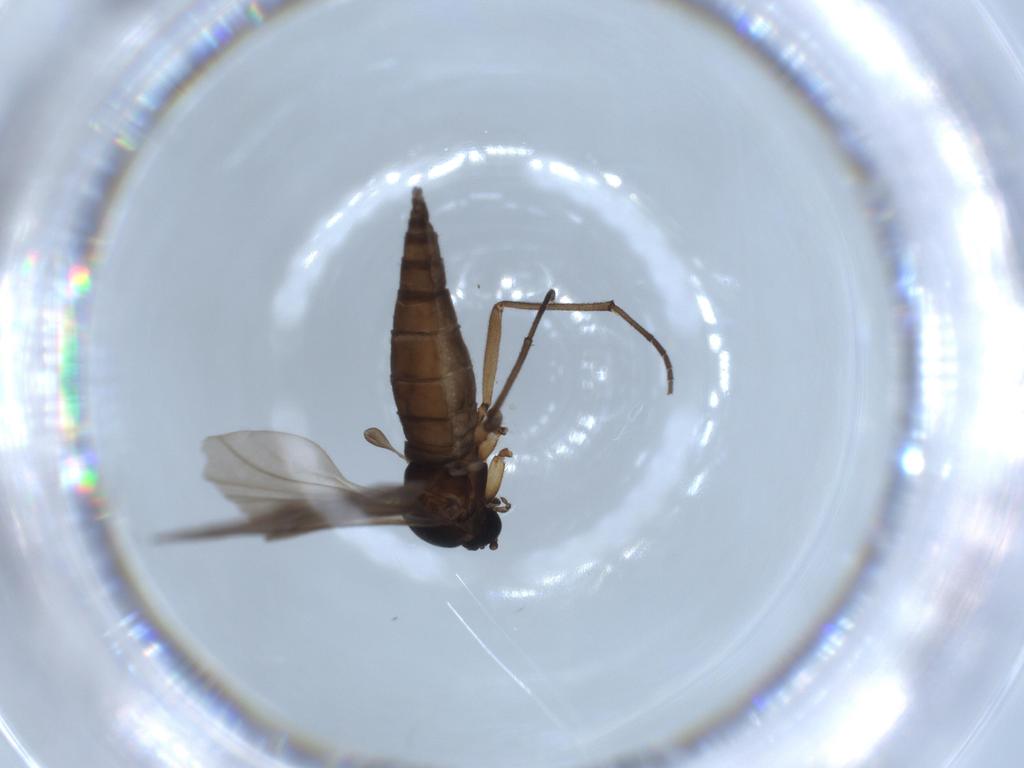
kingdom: Animalia
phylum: Arthropoda
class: Insecta
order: Diptera
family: Sciaridae
